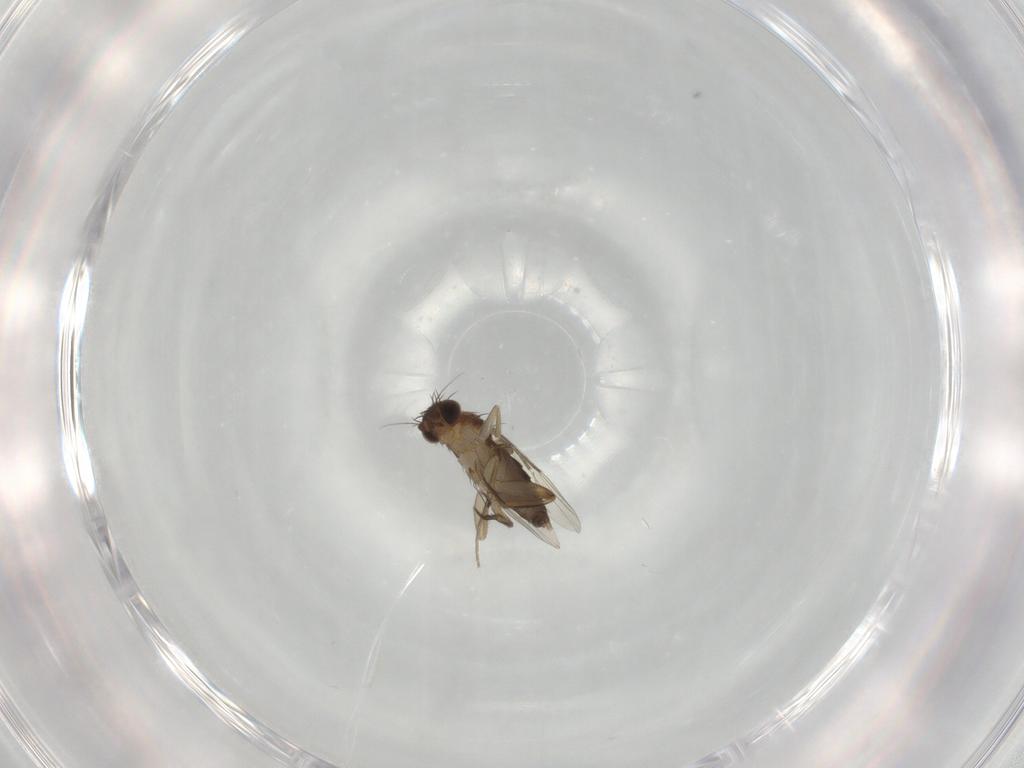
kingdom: Animalia
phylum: Arthropoda
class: Insecta
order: Diptera
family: Phoridae
